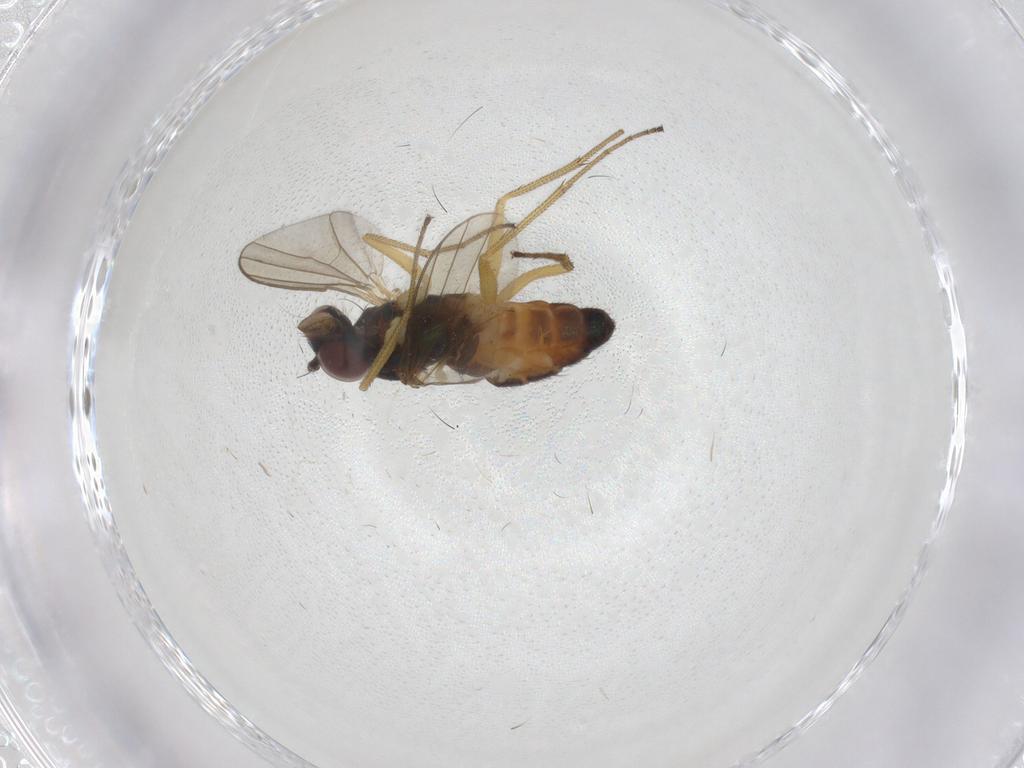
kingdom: Animalia
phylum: Arthropoda
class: Insecta
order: Diptera
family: Dolichopodidae
